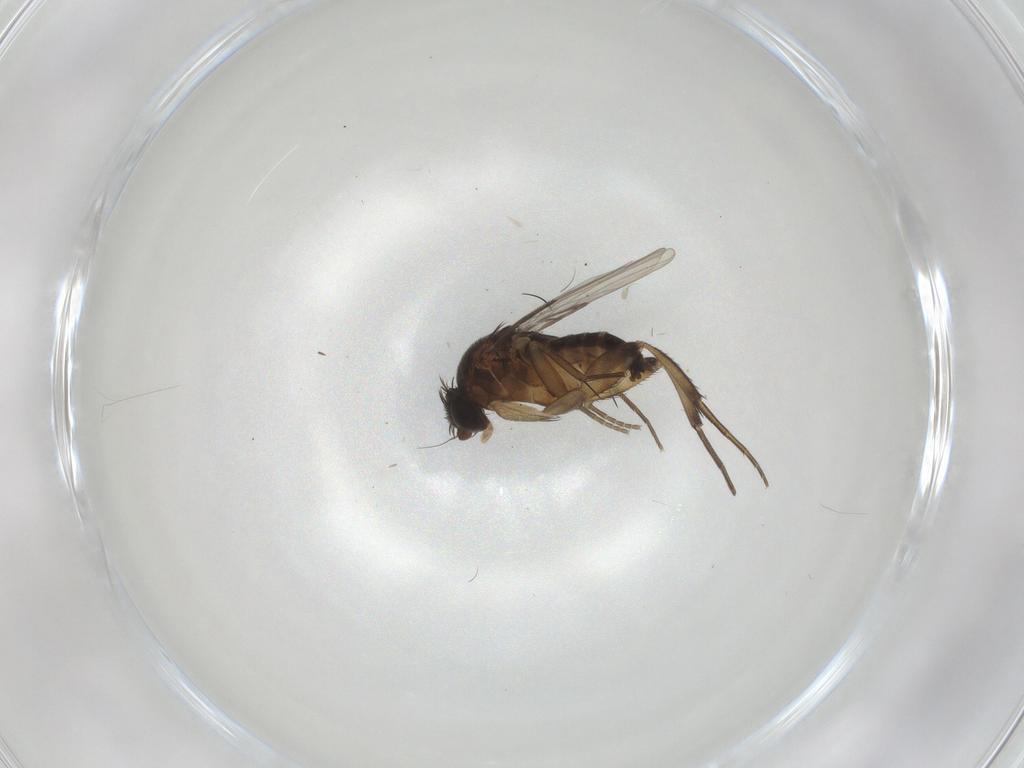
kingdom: Animalia
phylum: Arthropoda
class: Insecta
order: Diptera
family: Phoridae
